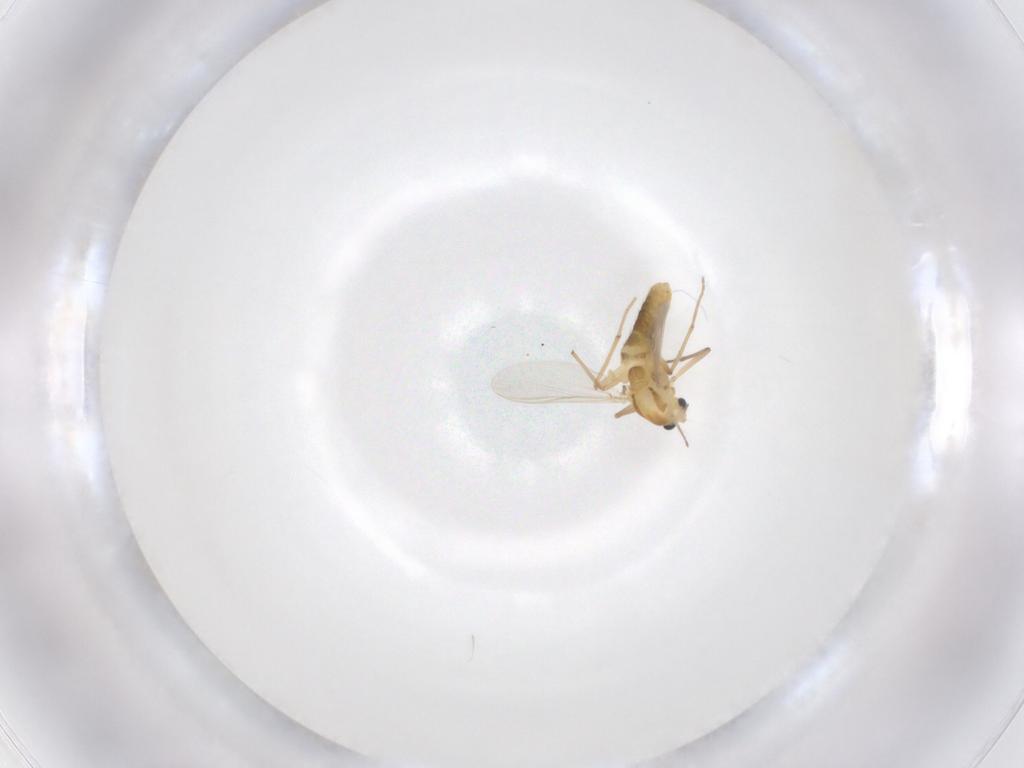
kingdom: Animalia
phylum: Arthropoda
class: Insecta
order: Diptera
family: Chironomidae
